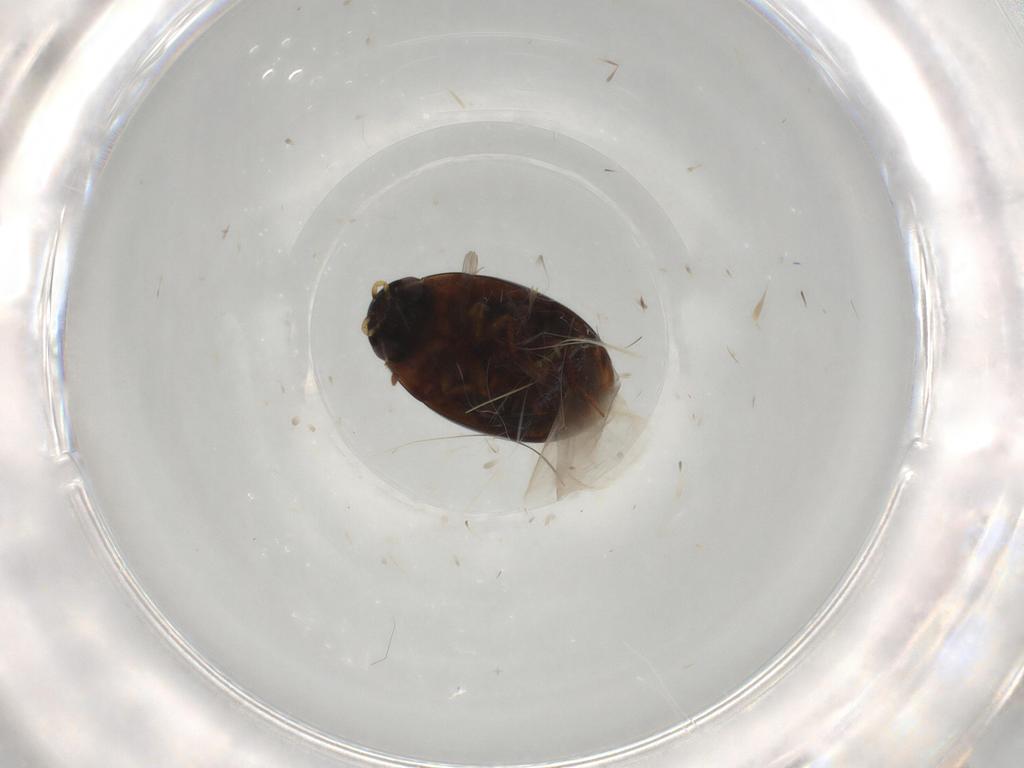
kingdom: Animalia
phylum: Arthropoda
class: Insecta
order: Coleoptera
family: Hydrophilidae
